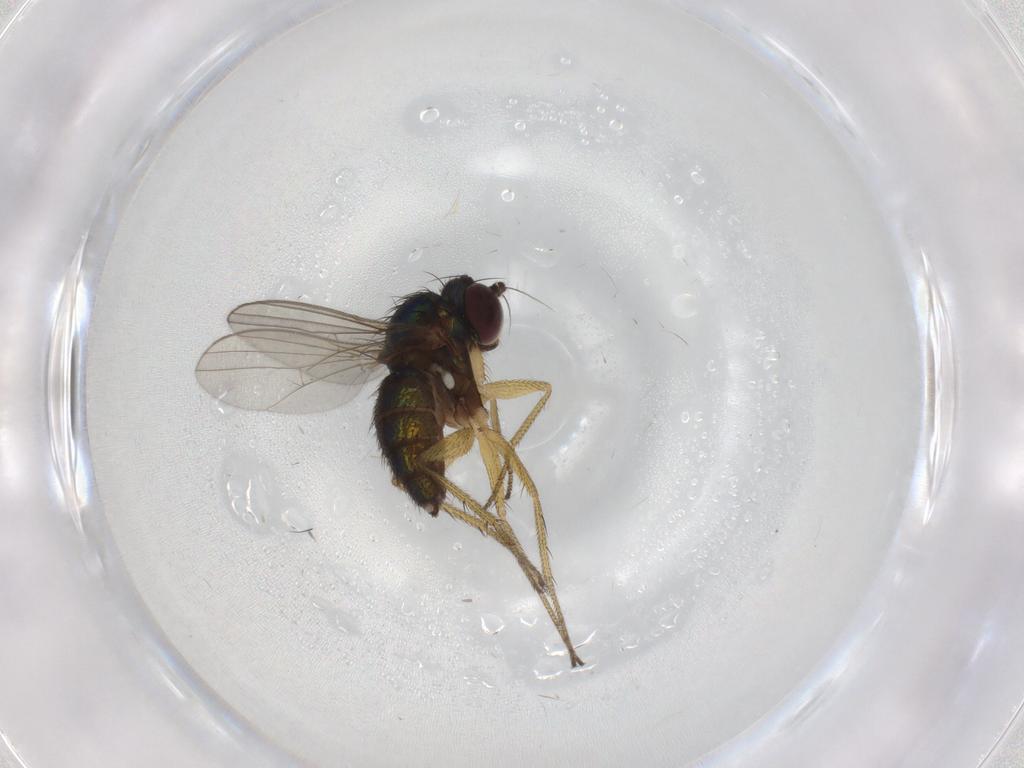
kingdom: Animalia
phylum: Arthropoda
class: Insecta
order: Diptera
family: Dolichopodidae
